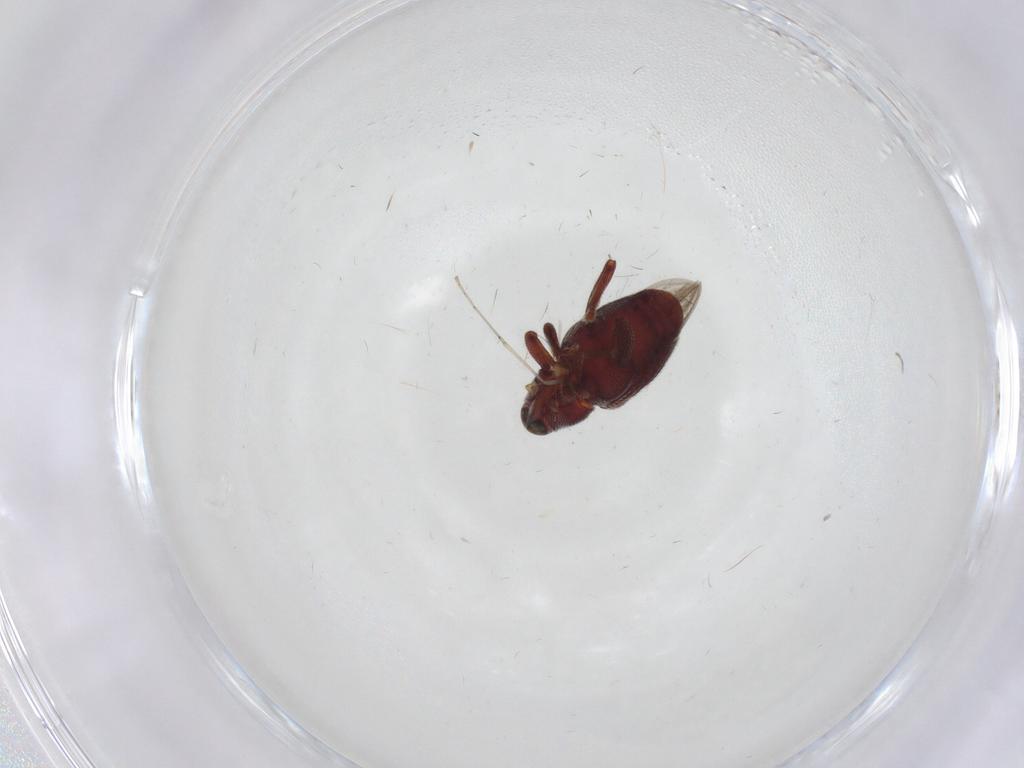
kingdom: Animalia
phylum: Arthropoda
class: Insecta
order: Coleoptera
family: Curculionidae
